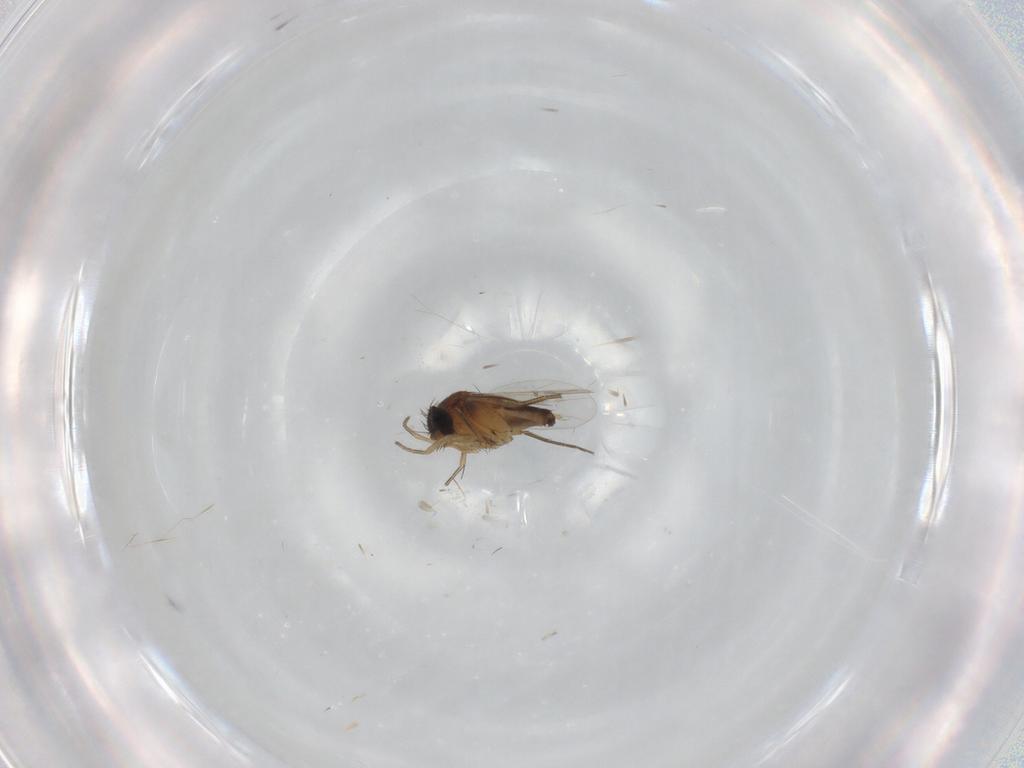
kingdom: Animalia
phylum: Arthropoda
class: Insecta
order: Diptera
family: Phoridae
